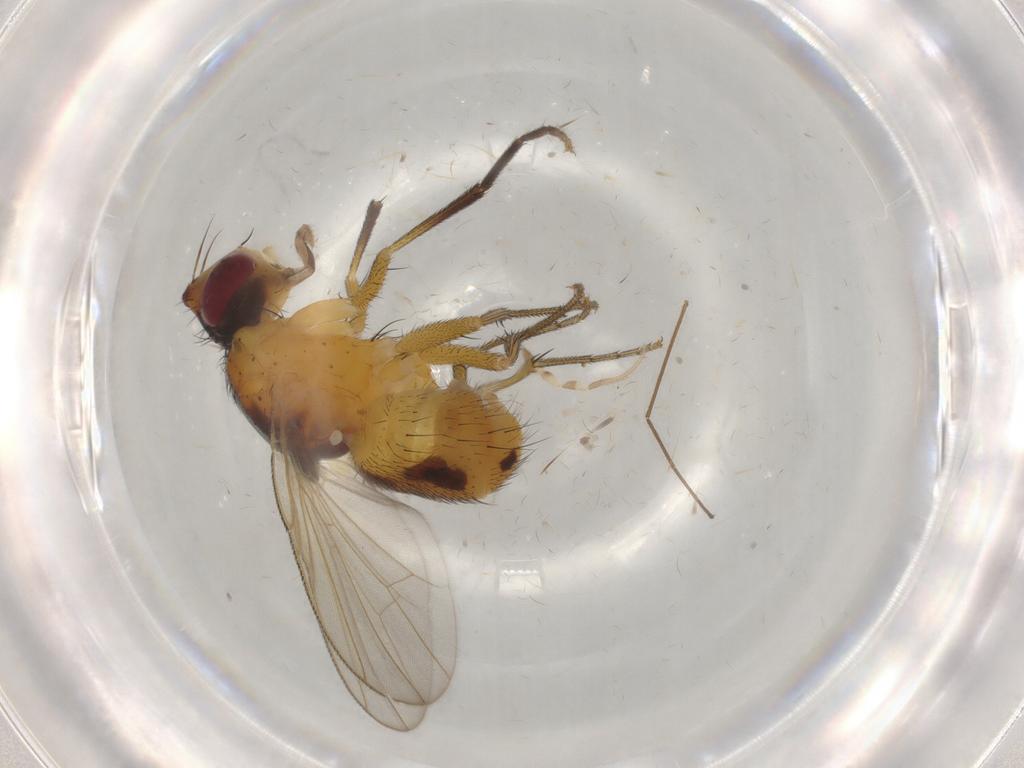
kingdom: Animalia
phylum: Arthropoda
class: Insecta
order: Diptera
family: Muscidae
